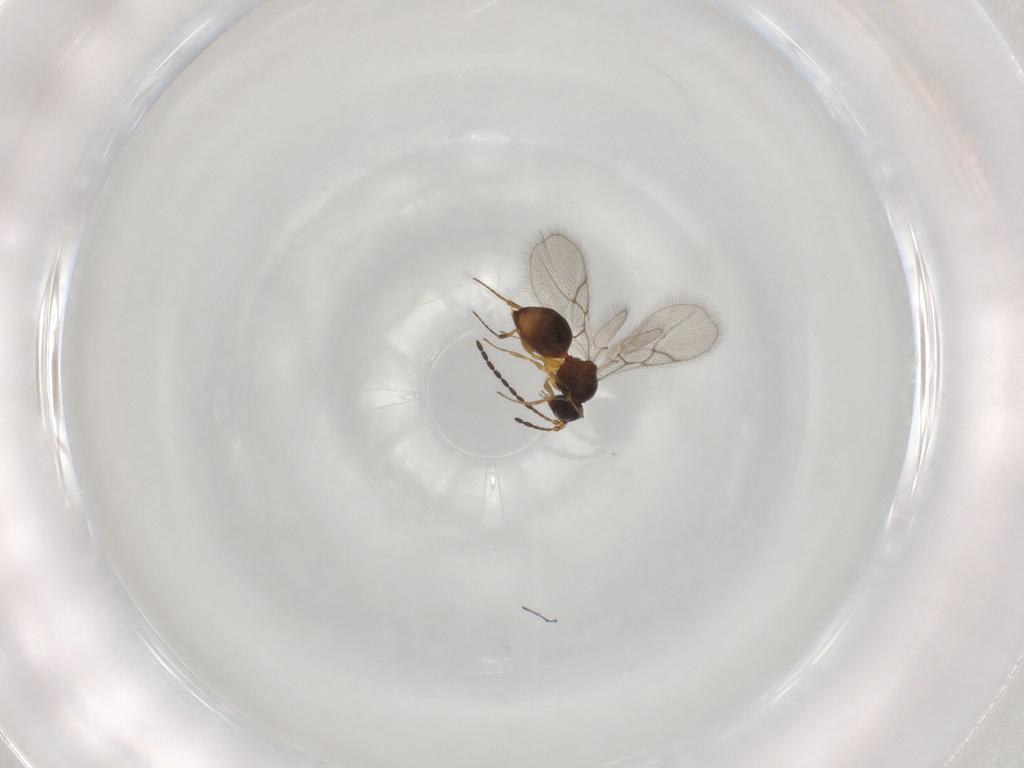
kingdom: Animalia
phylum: Arthropoda
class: Insecta
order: Hymenoptera
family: Figitidae
